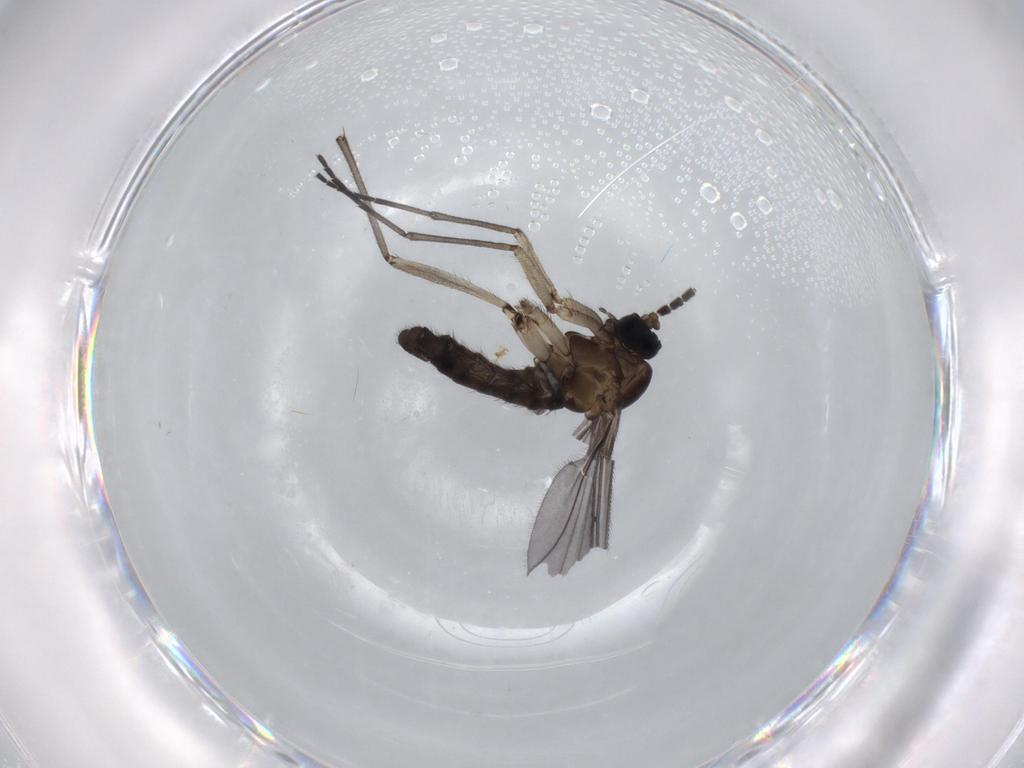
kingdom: Animalia
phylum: Arthropoda
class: Insecta
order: Diptera
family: Sciaridae
